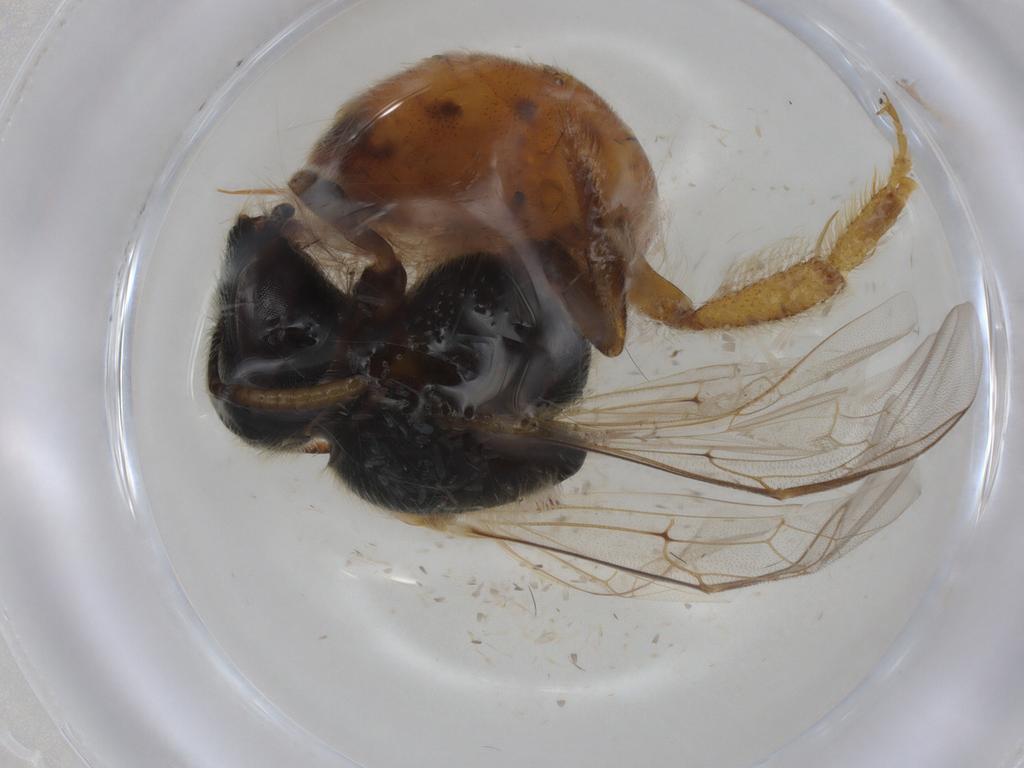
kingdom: Animalia
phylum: Arthropoda
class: Insecta
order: Hymenoptera
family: Halictidae
